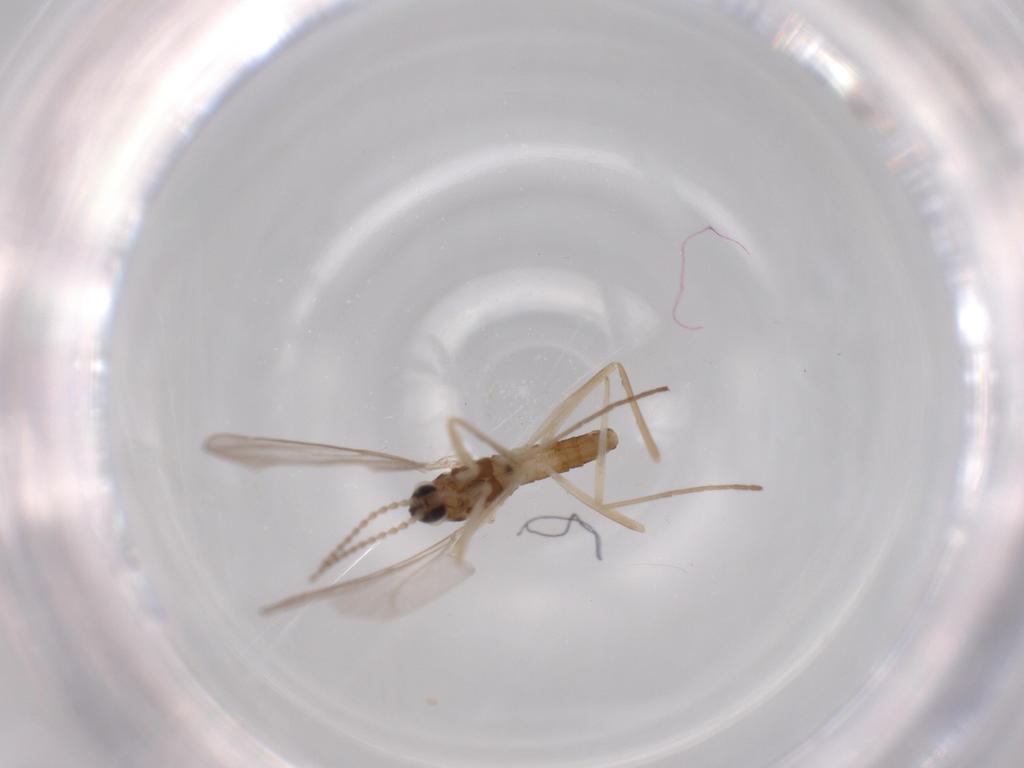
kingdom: Animalia
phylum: Arthropoda
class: Insecta
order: Diptera
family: Cecidomyiidae
